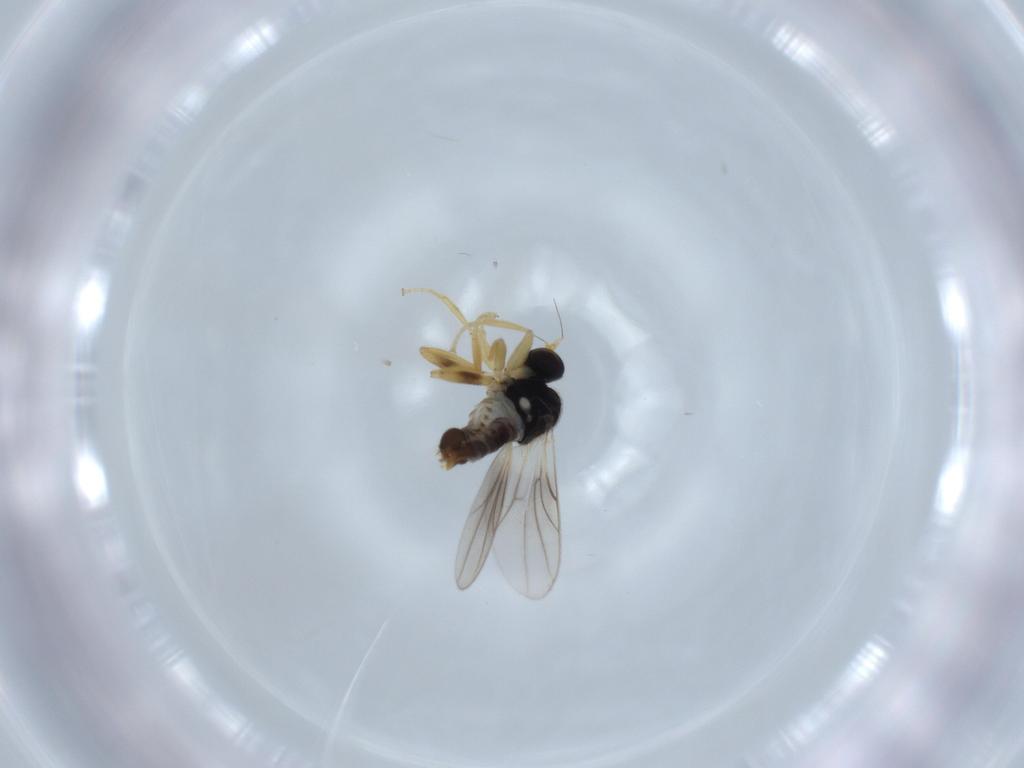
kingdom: Animalia
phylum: Arthropoda
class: Insecta
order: Diptera
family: Hybotidae
